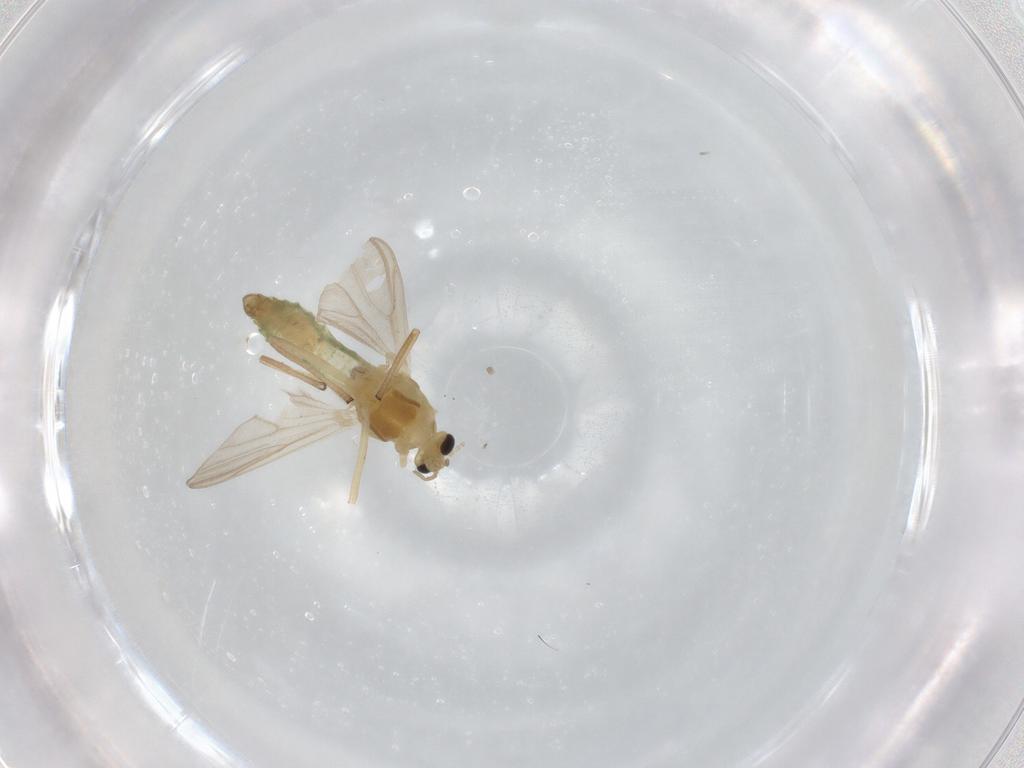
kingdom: Animalia
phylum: Arthropoda
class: Insecta
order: Diptera
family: Chironomidae
